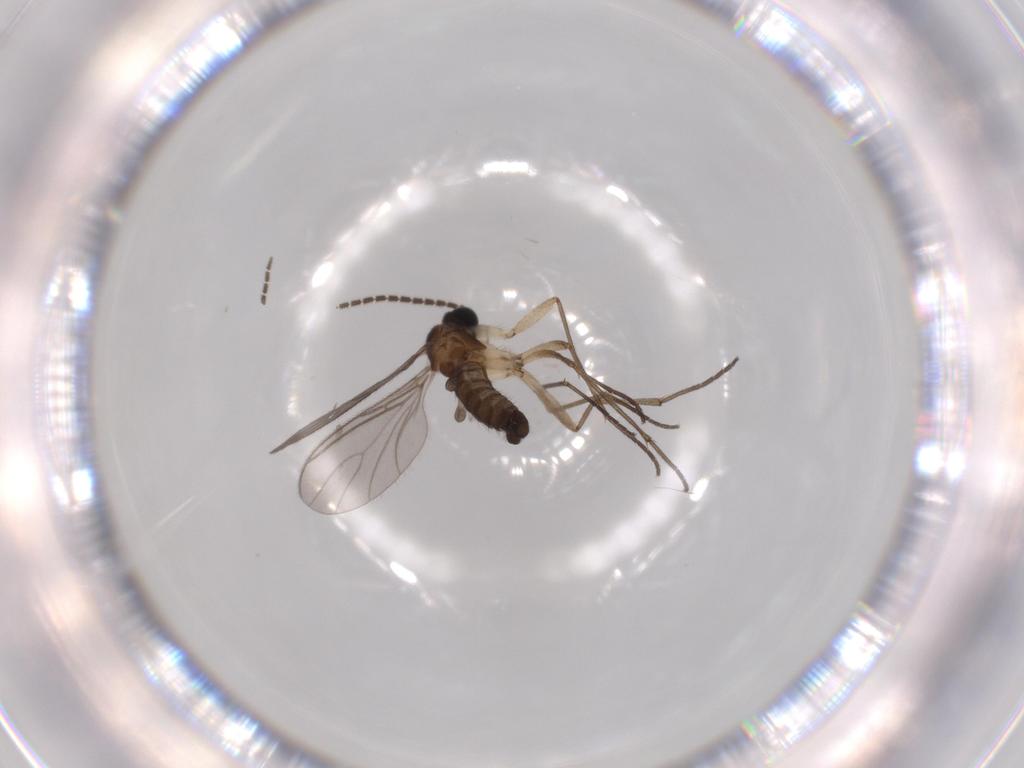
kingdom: Animalia
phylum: Arthropoda
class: Insecta
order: Diptera
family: Sciaridae
